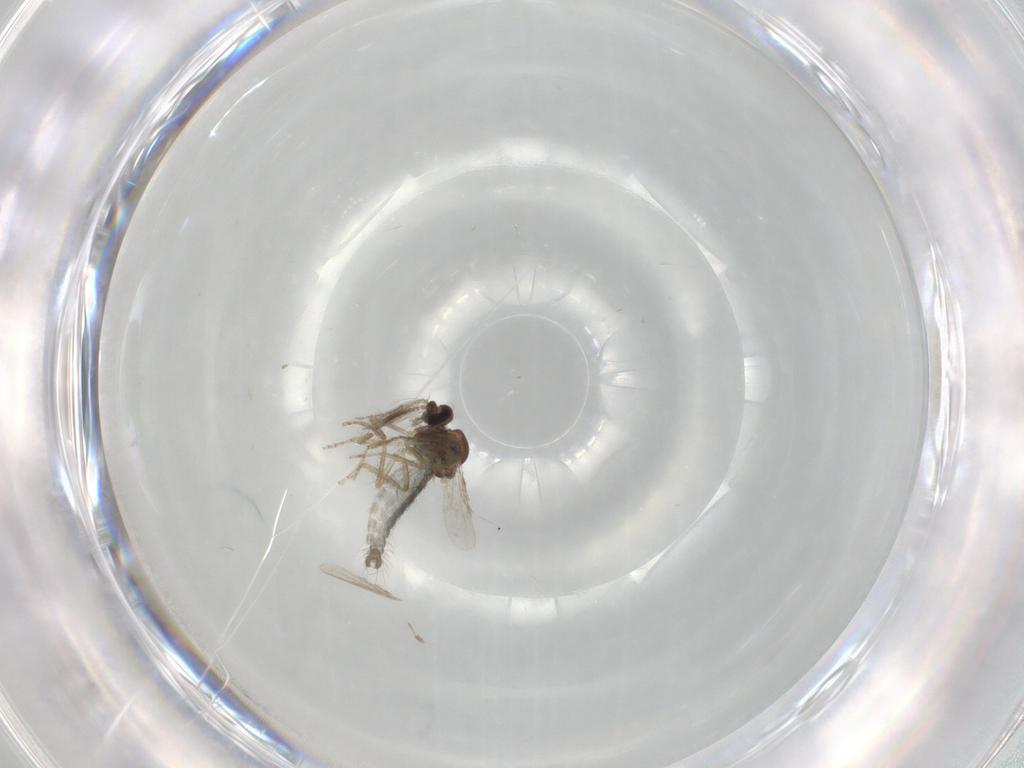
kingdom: Animalia
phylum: Arthropoda
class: Insecta
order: Diptera
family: Ceratopogonidae
